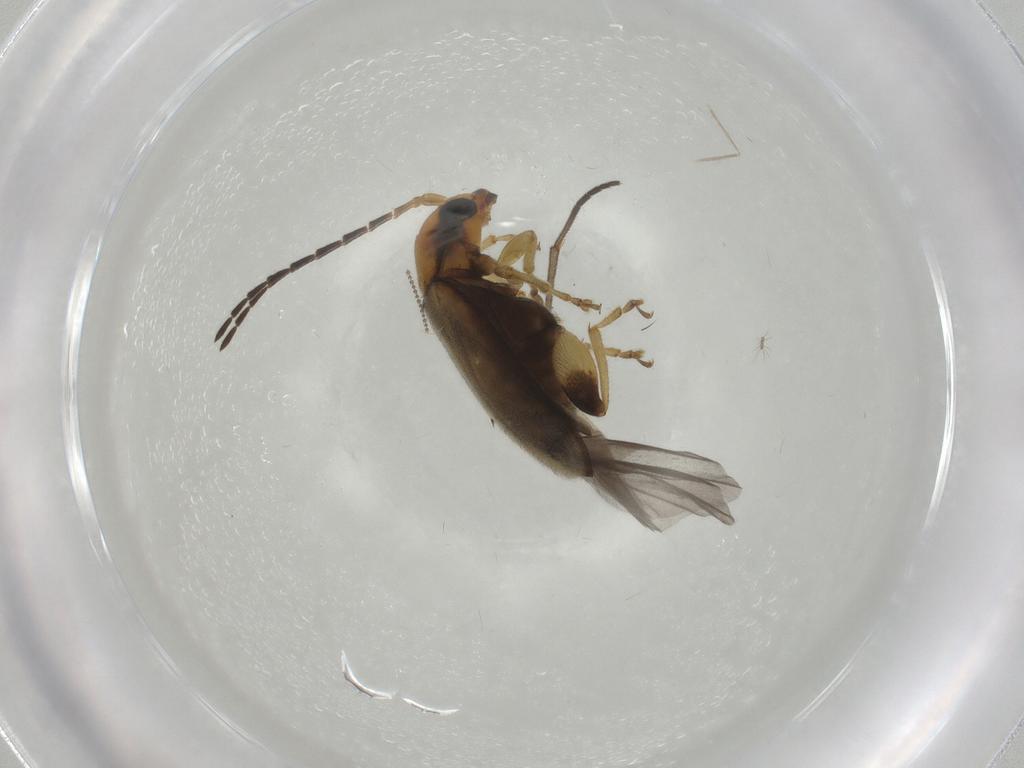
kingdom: Animalia
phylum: Arthropoda
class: Insecta
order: Coleoptera
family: Chrysomelidae
